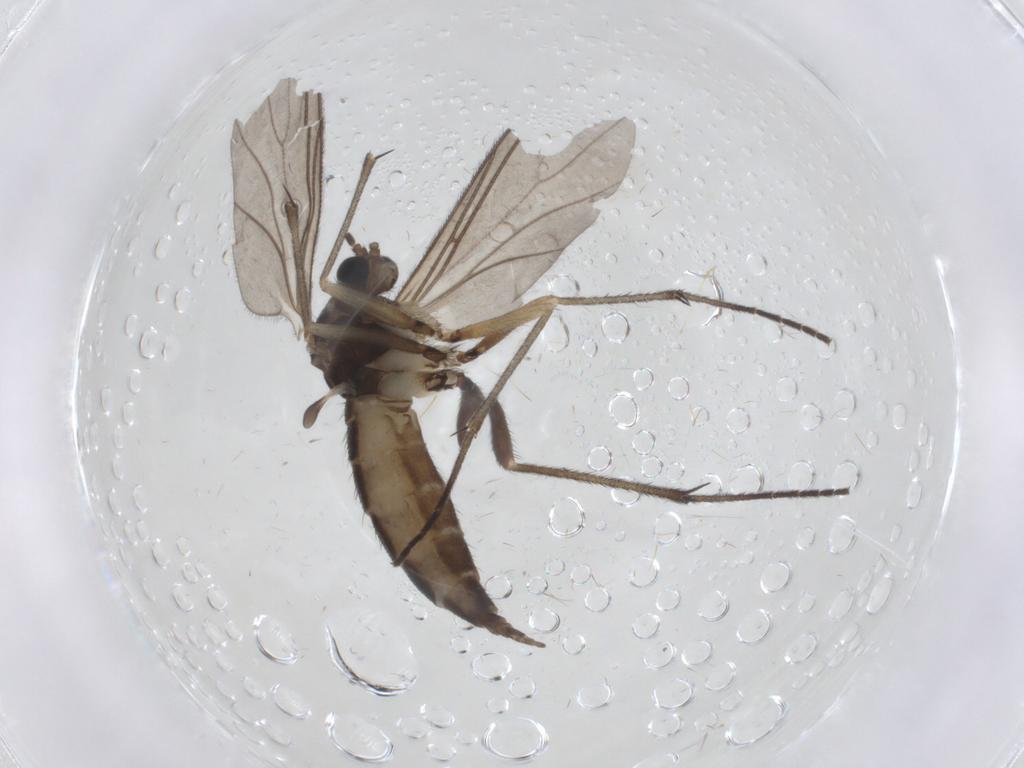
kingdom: Animalia
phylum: Arthropoda
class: Insecta
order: Diptera
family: Sciaridae
